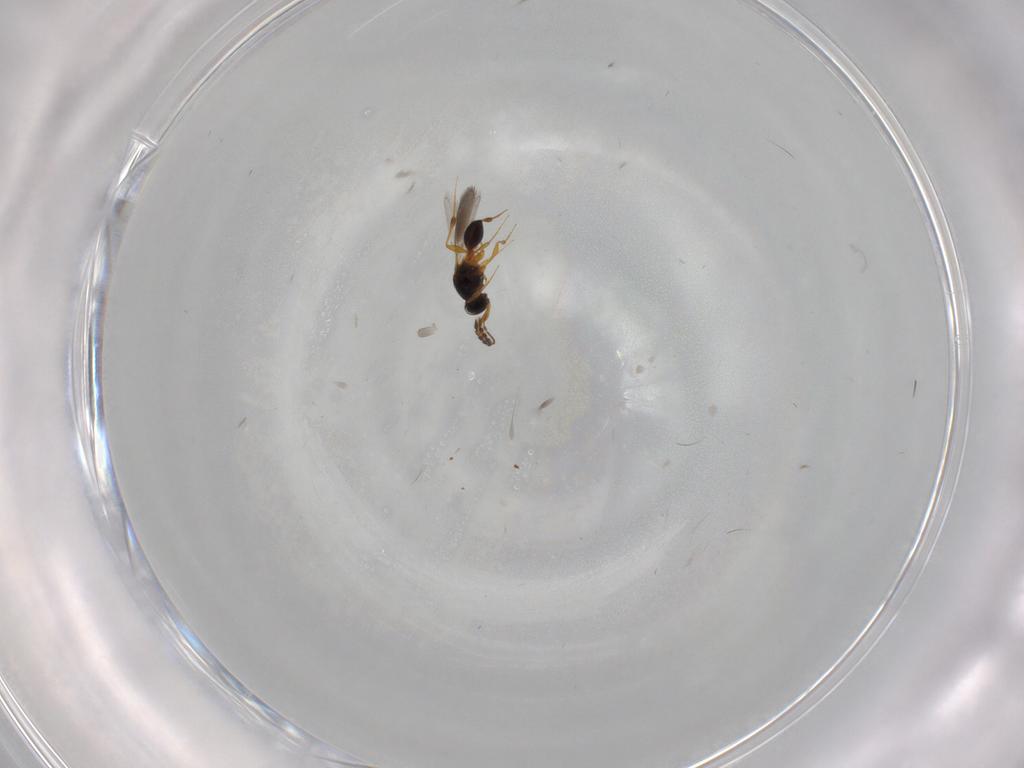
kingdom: Animalia
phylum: Arthropoda
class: Insecta
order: Hymenoptera
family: Platygastridae
